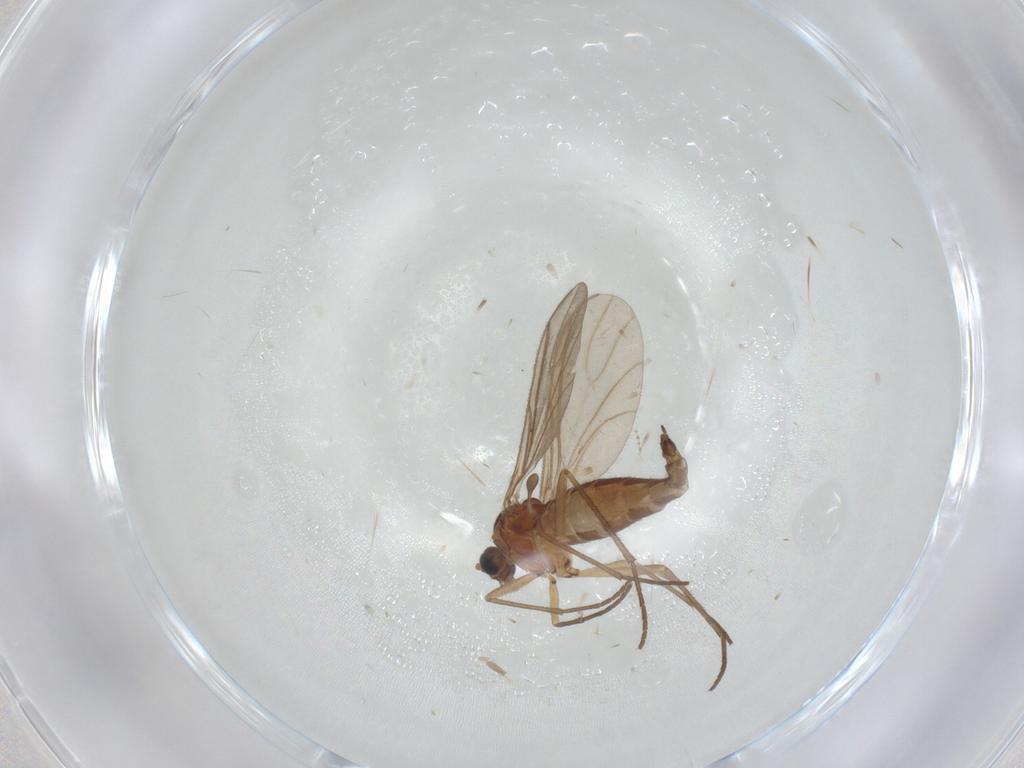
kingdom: Animalia
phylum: Arthropoda
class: Insecta
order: Diptera
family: Sciaridae
